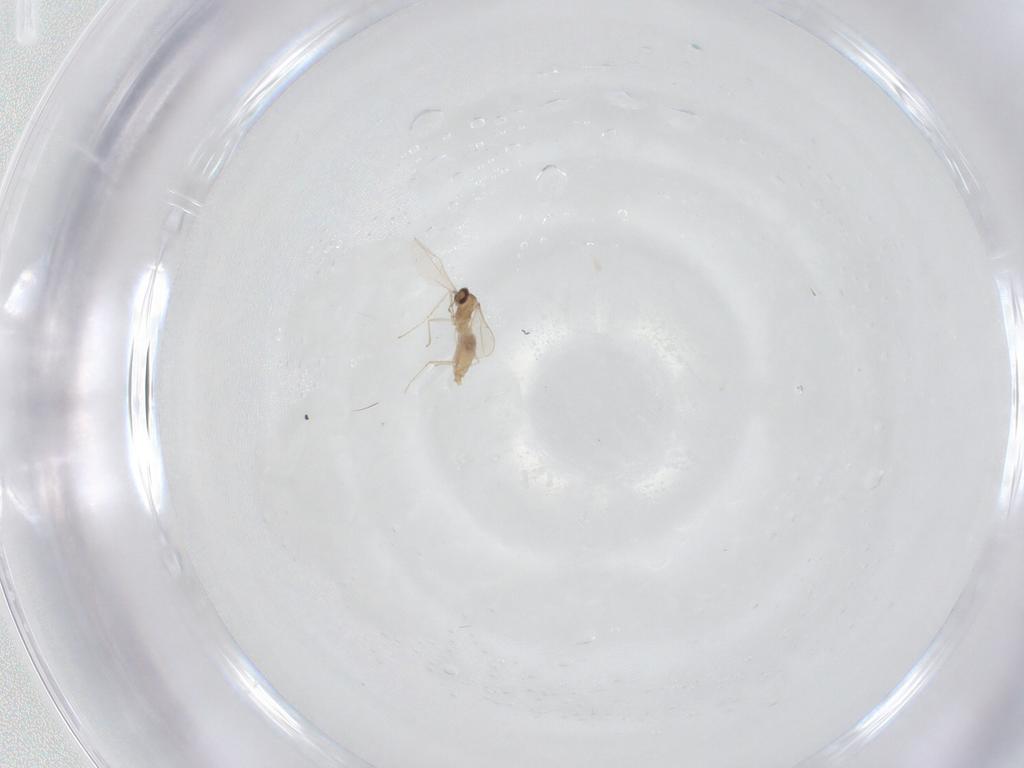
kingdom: Animalia
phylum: Arthropoda
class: Insecta
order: Diptera
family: Cecidomyiidae
